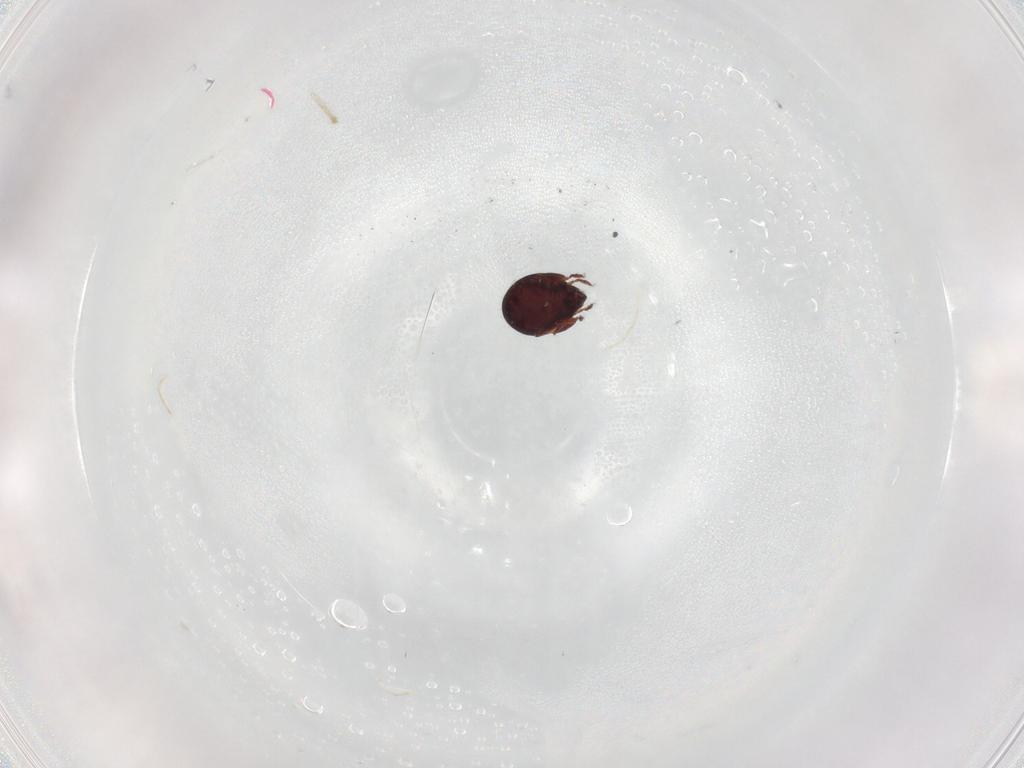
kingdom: Animalia
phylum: Arthropoda
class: Arachnida
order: Sarcoptiformes
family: Humerobatidae
